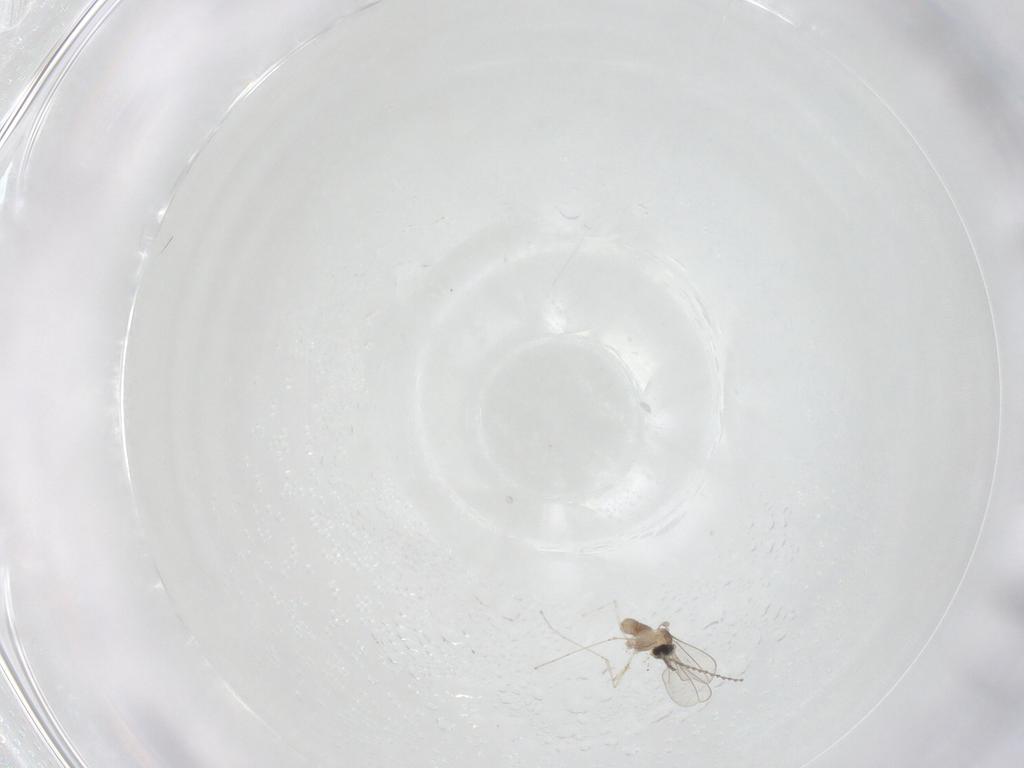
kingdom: Animalia
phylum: Arthropoda
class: Insecta
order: Diptera
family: Cecidomyiidae
